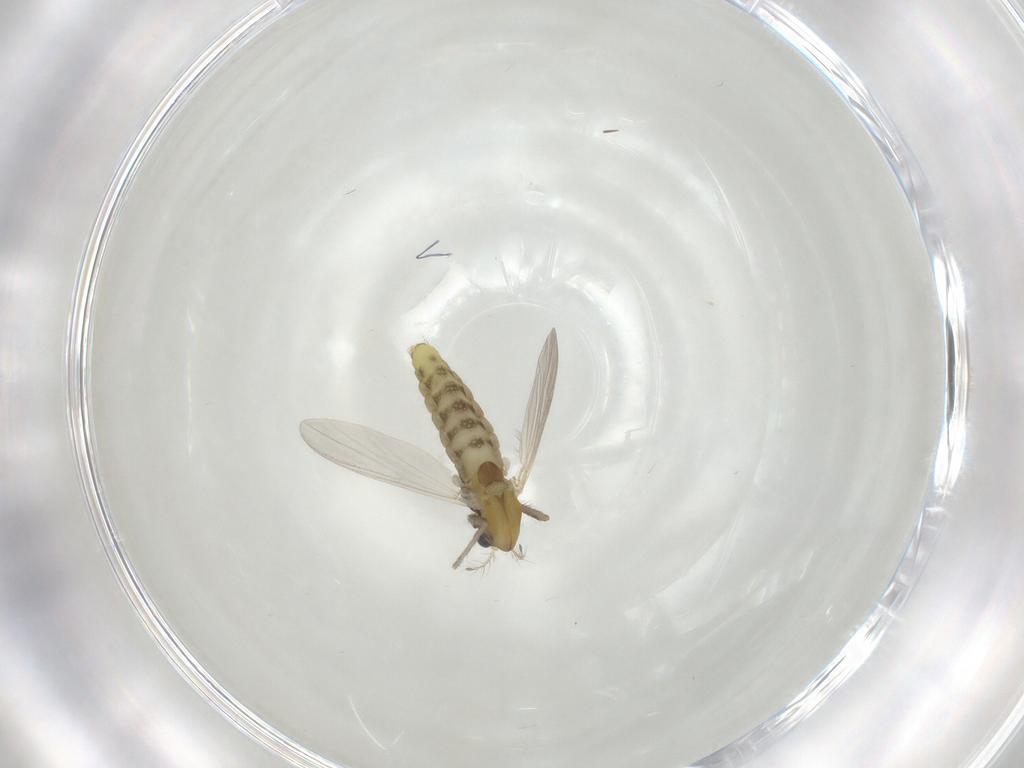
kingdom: Animalia
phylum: Arthropoda
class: Insecta
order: Diptera
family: Chironomidae
